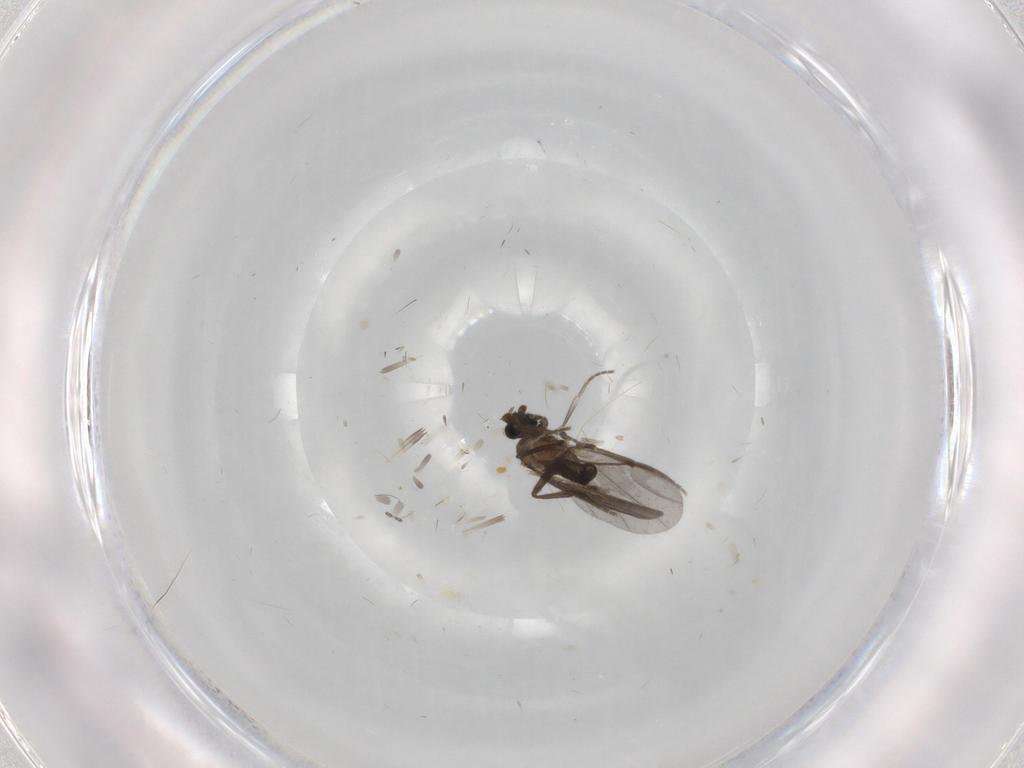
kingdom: Animalia
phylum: Arthropoda
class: Insecta
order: Diptera
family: Phoridae
